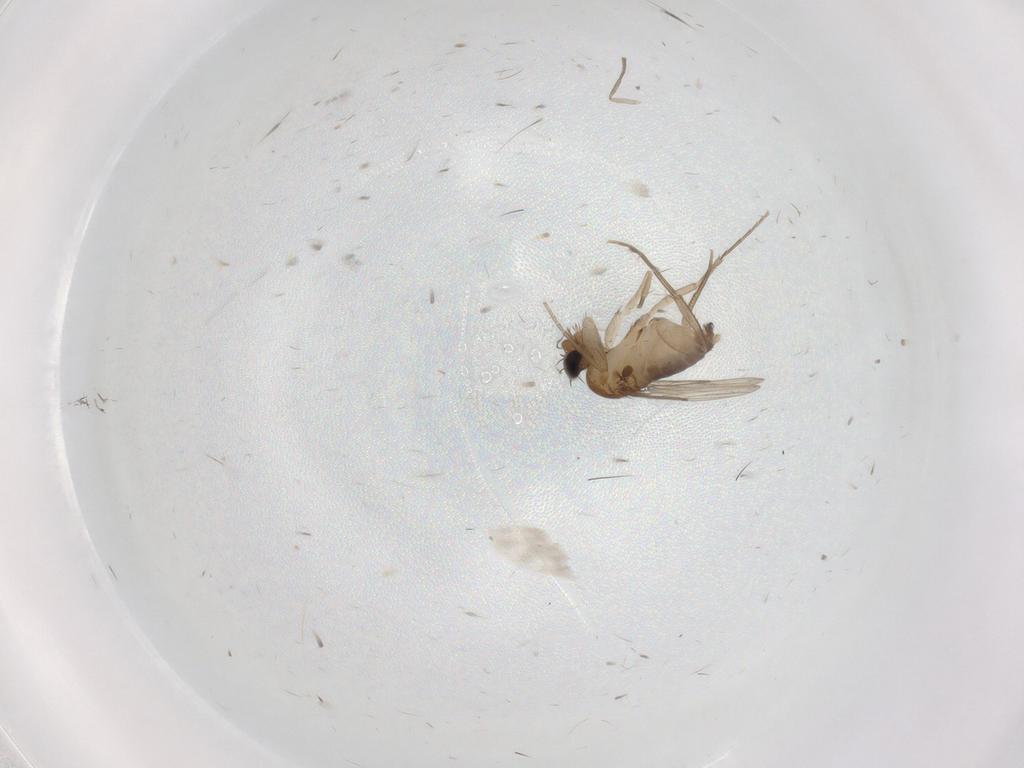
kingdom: Animalia
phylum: Arthropoda
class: Insecta
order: Diptera
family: Phoridae
